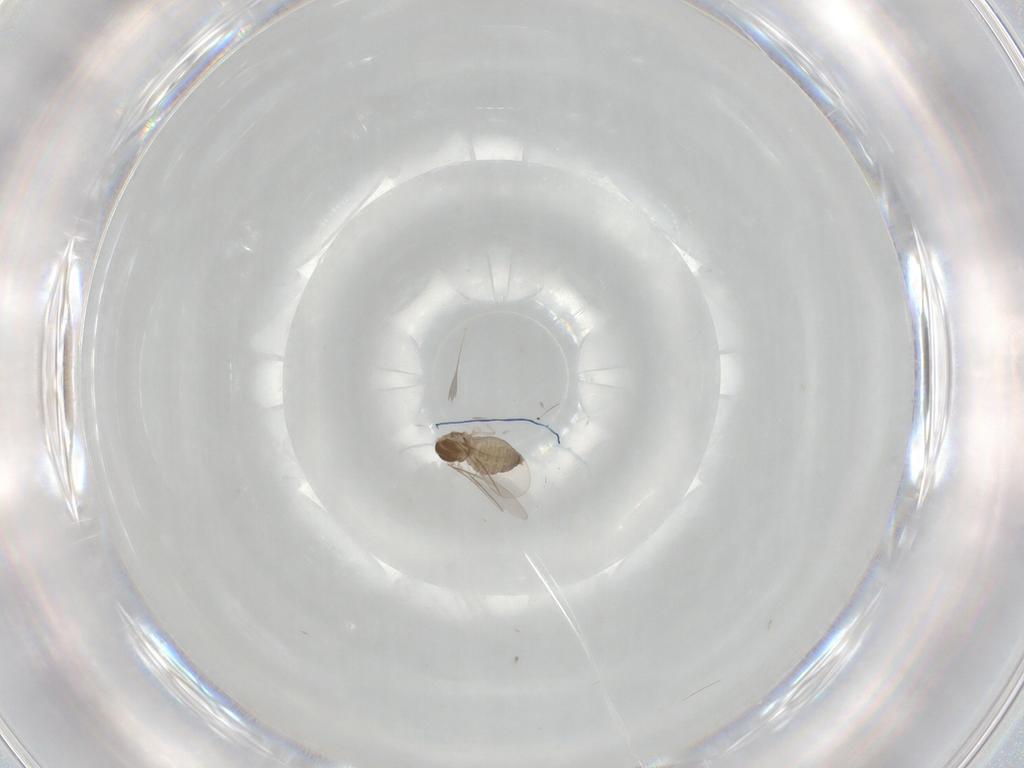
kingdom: Animalia
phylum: Arthropoda
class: Insecta
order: Diptera
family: Cecidomyiidae
